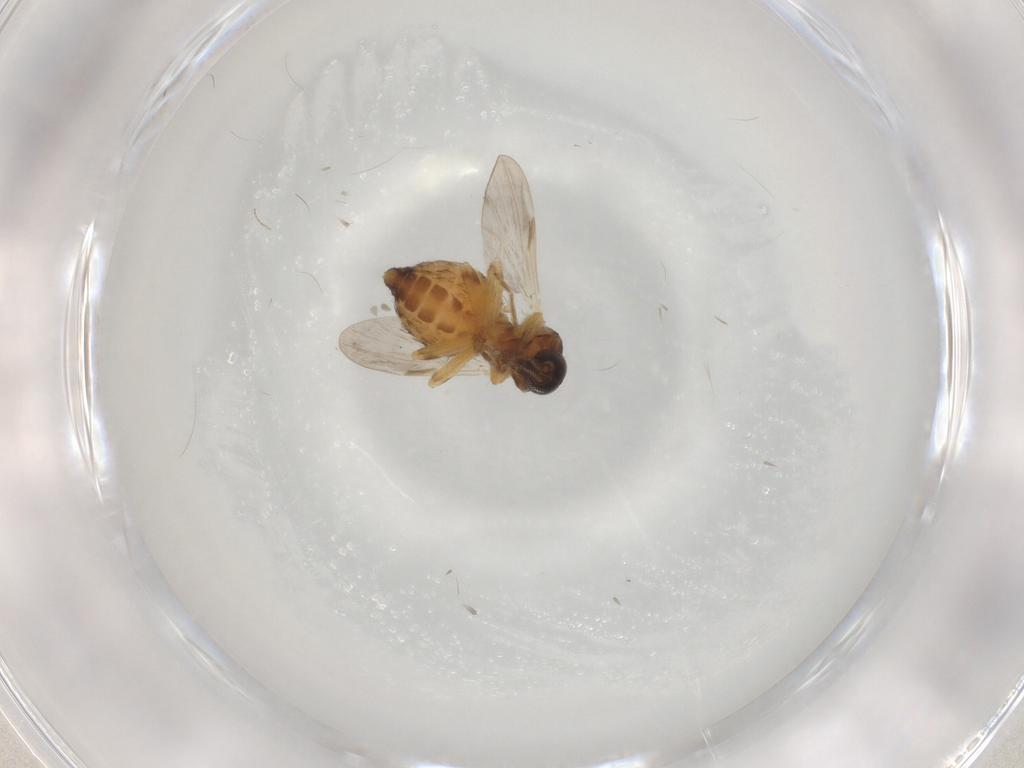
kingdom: Animalia
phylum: Arthropoda
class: Insecta
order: Diptera
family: Ceratopogonidae
